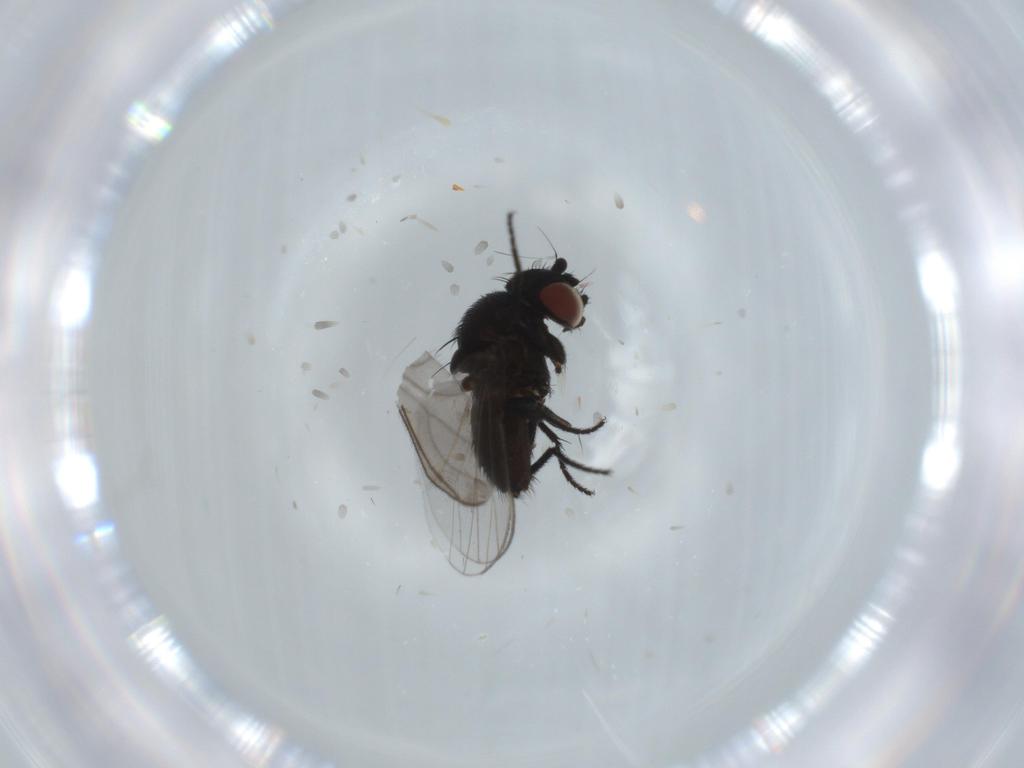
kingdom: Animalia
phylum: Arthropoda
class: Insecta
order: Diptera
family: Milichiidae
